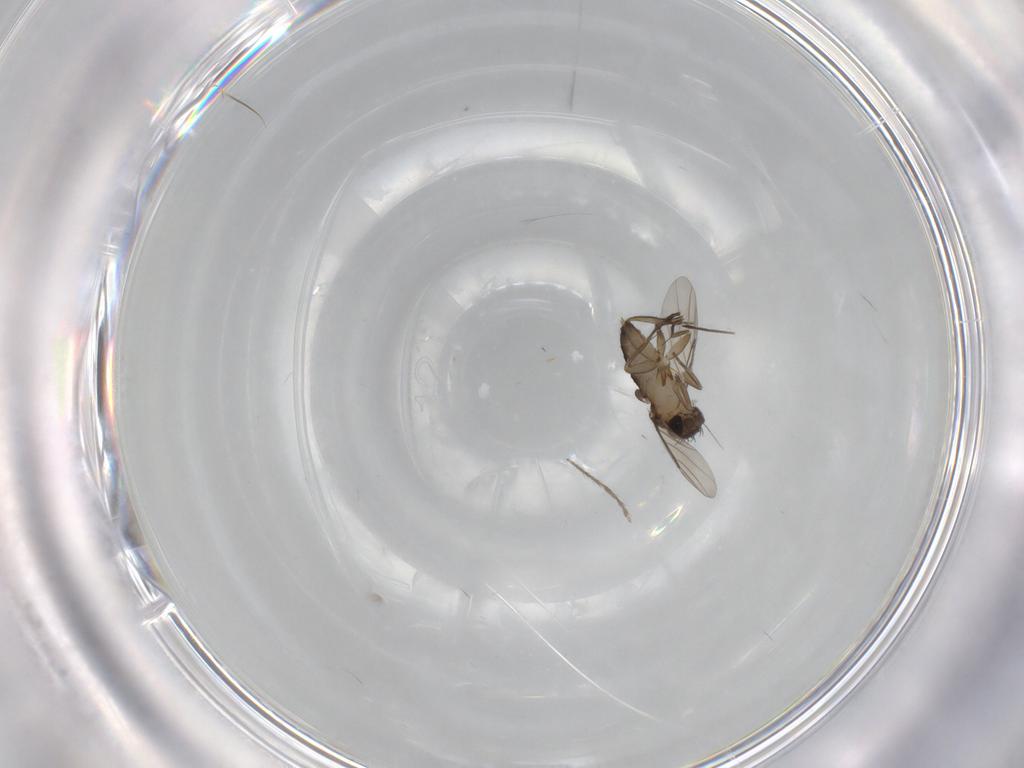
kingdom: Animalia
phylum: Arthropoda
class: Insecta
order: Diptera
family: Phoridae
